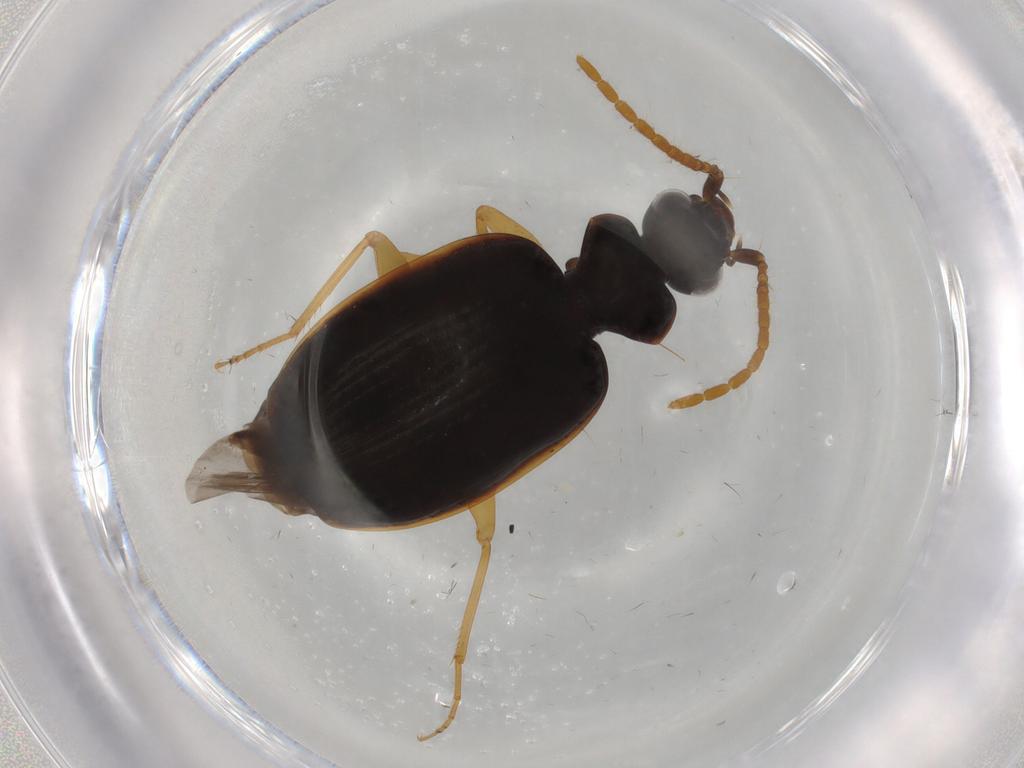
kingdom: Animalia
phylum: Arthropoda
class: Insecta
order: Coleoptera
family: Carabidae
